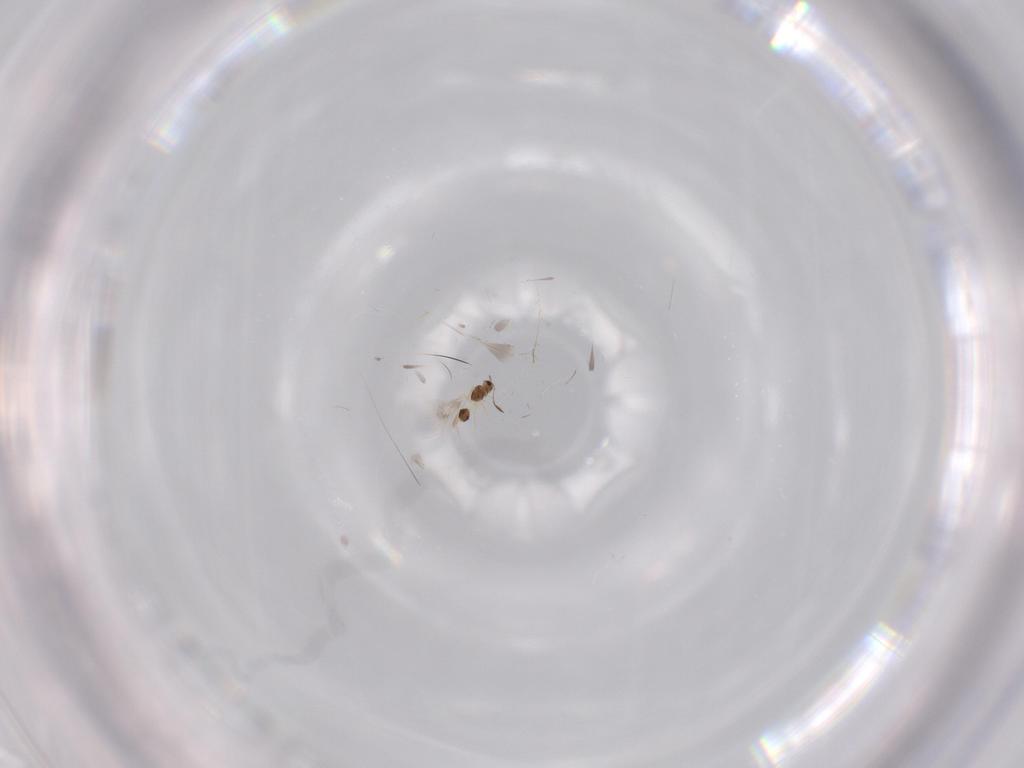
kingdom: Animalia
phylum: Arthropoda
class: Insecta
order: Hymenoptera
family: Mymarommatidae
